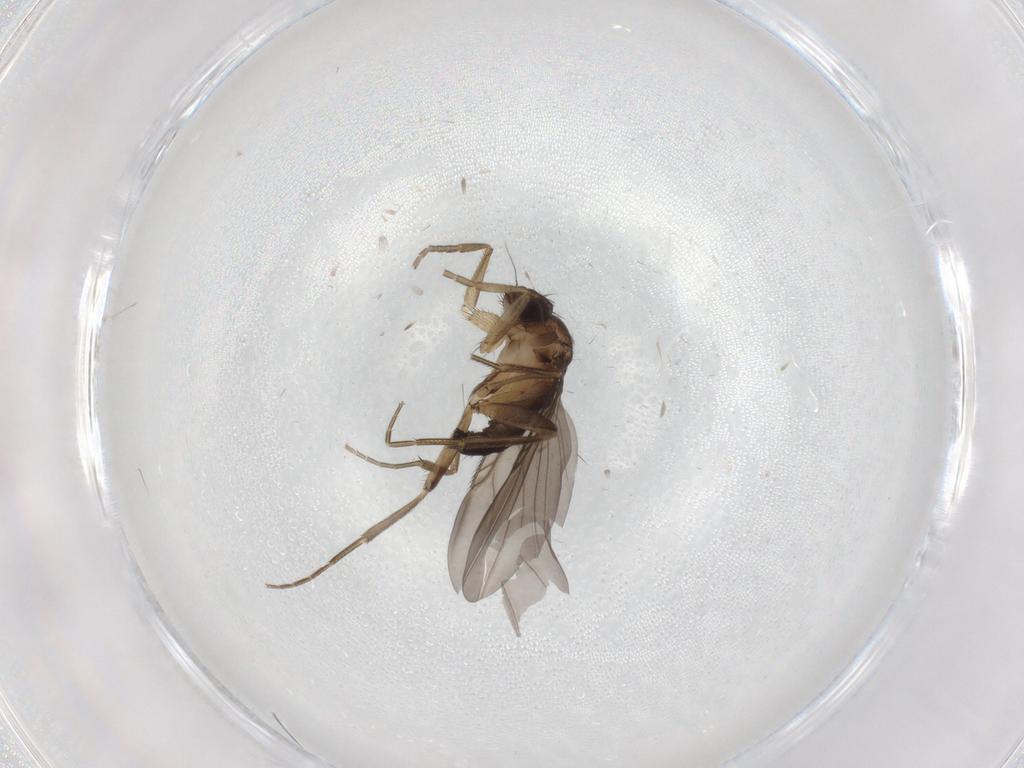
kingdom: Animalia
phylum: Arthropoda
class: Insecta
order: Diptera
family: Phoridae
